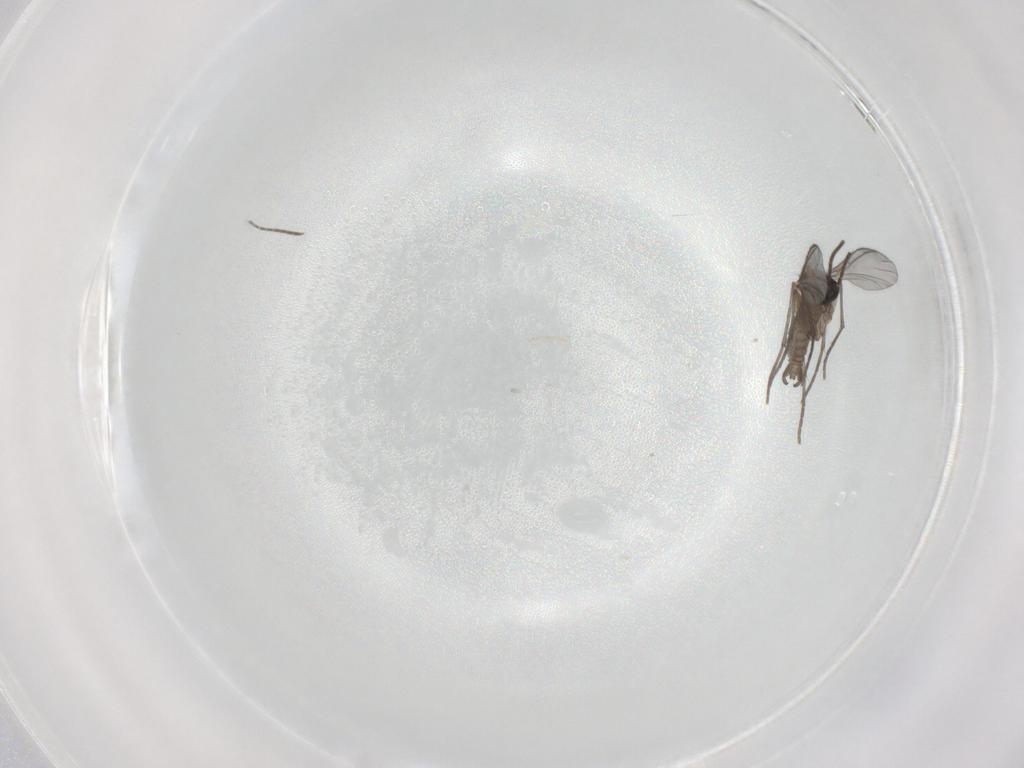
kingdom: Animalia
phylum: Arthropoda
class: Insecta
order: Diptera
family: Sciaridae
